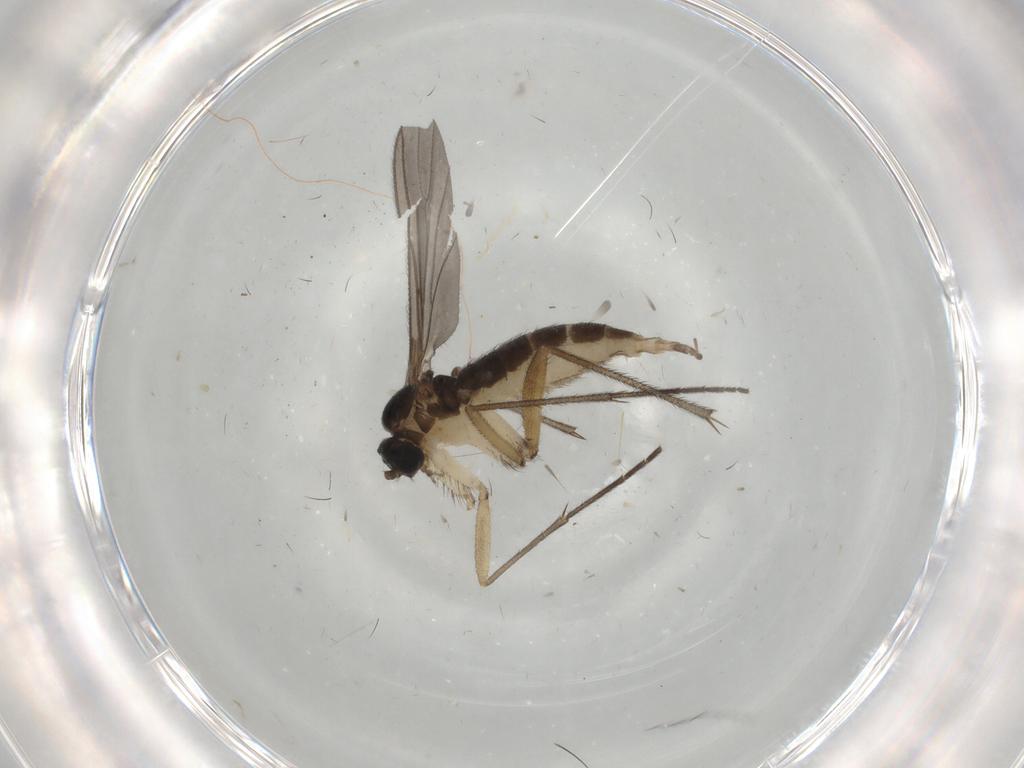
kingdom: Animalia
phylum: Arthropoda
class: Insecta
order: Diptera
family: Sciaridae
